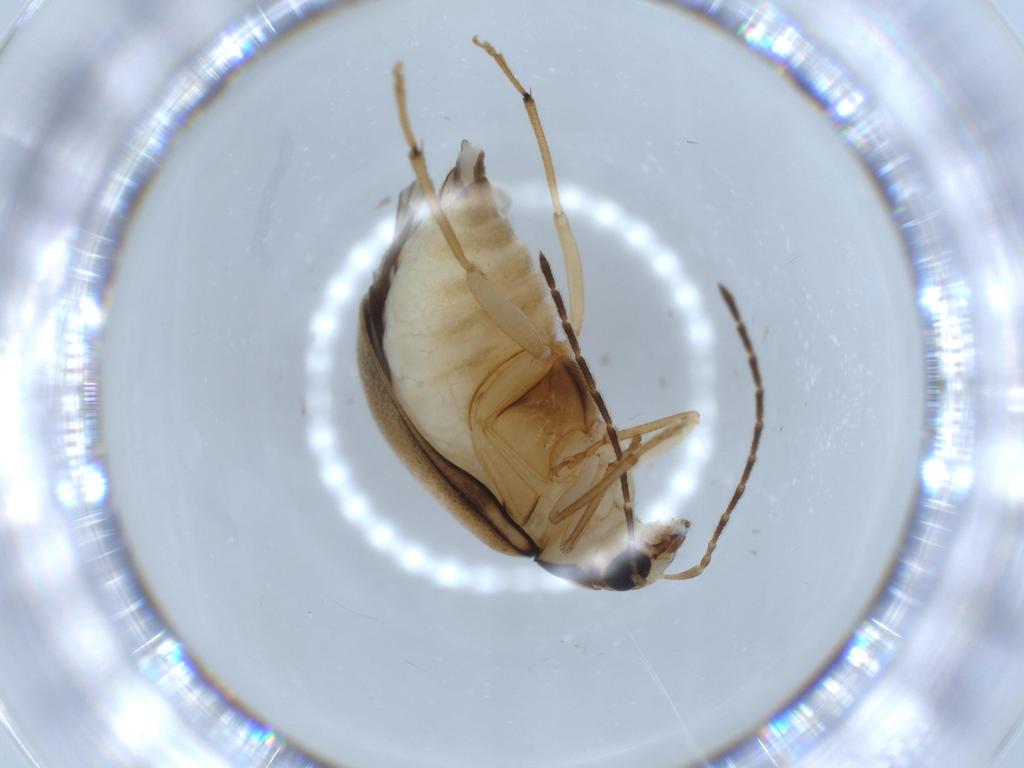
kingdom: Animalia
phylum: Arthropoda
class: Insecta
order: Coleoptera
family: Chrysomelidae
